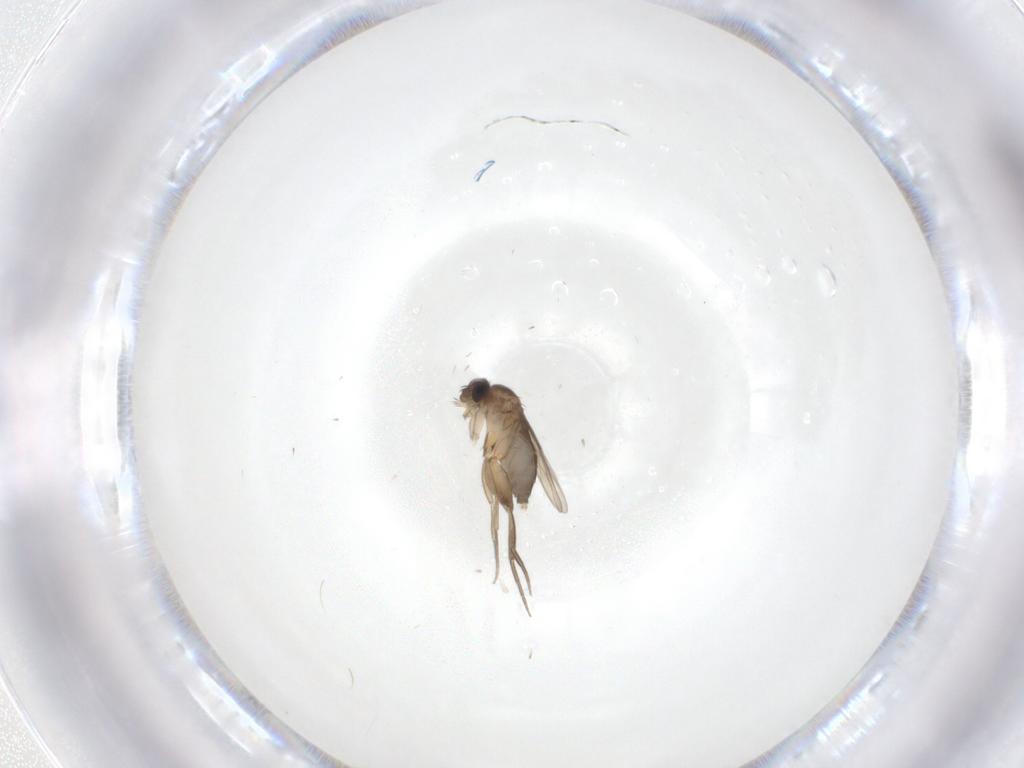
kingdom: Animalia
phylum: Arthropoda
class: Insecta
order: Diptera
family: Phoridae
